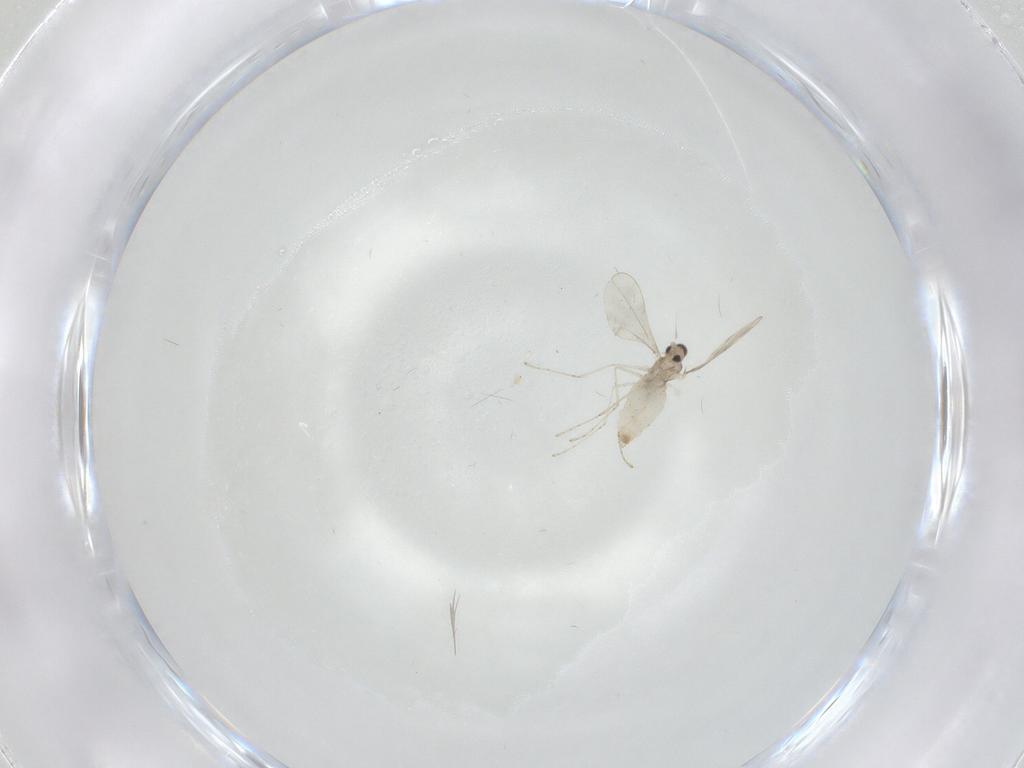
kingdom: Animalia
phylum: Arthropoda
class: Insecta
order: Diptera
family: Cecidomyiidae
